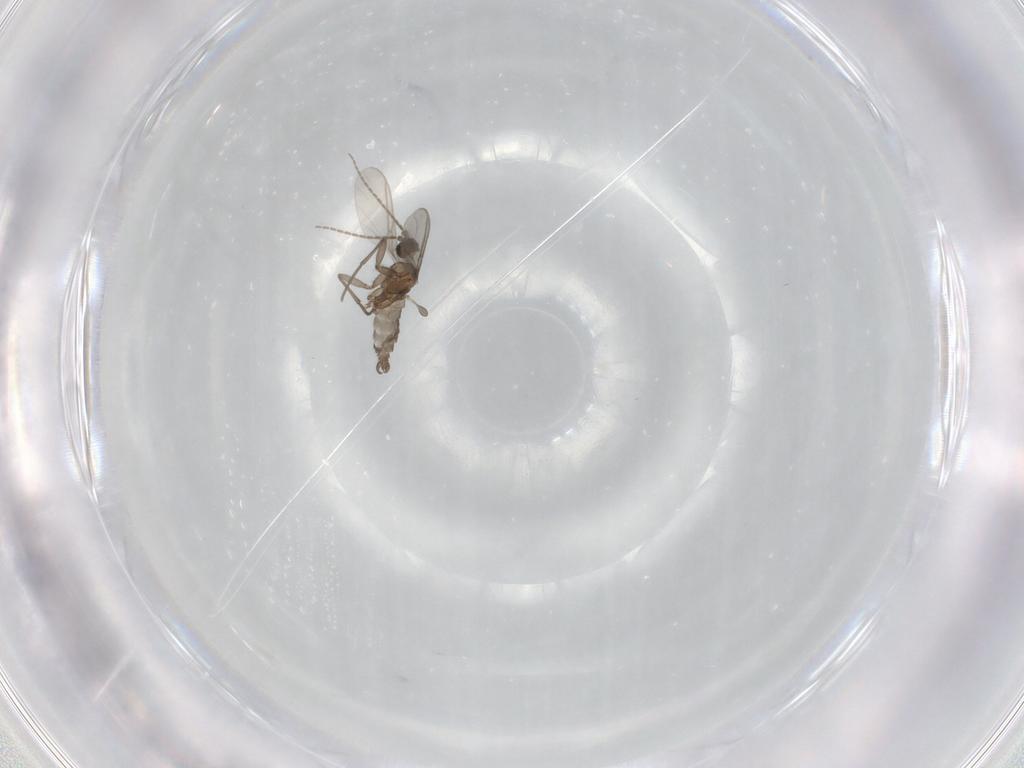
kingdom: Animalia
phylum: Arthropoda
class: Insecta
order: Diptera
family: Sciaridae
